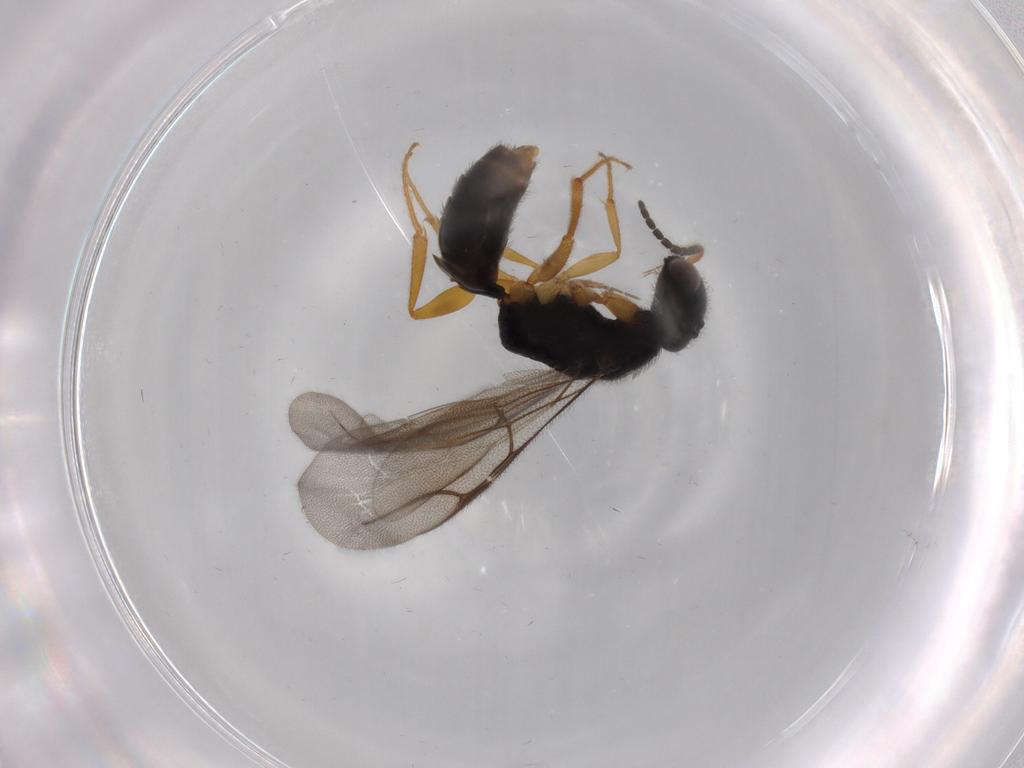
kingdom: Animalia
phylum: Arthropoda
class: Insecta
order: Hymenoptera
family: Bethylidae
